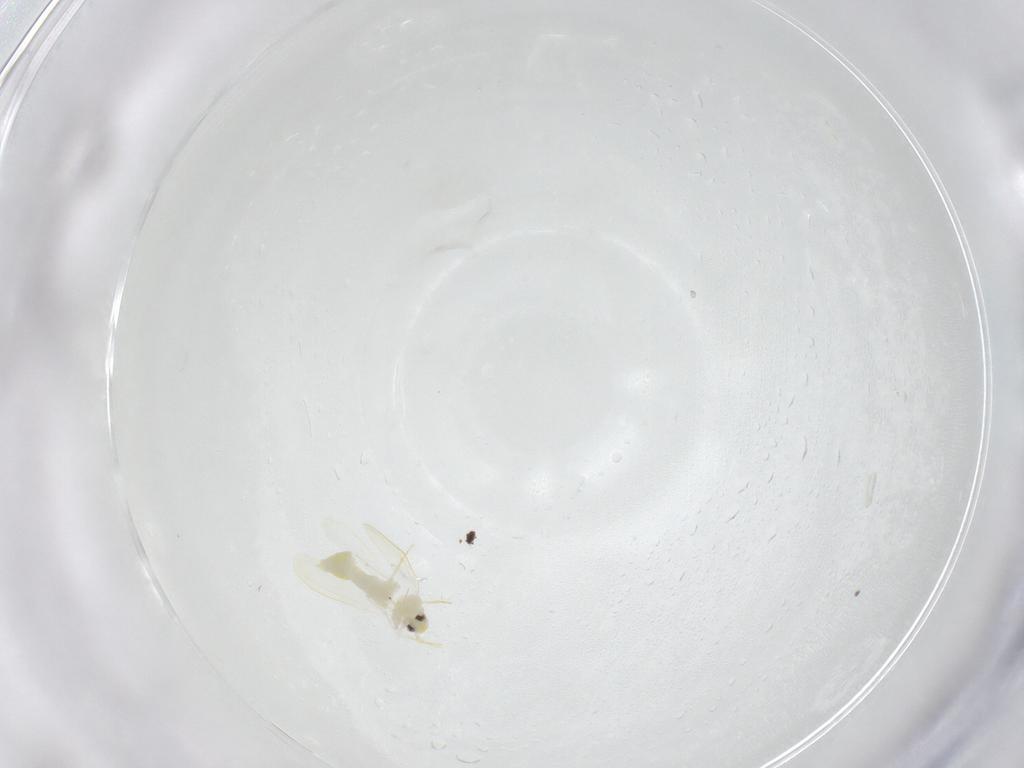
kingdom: Animalia
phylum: Arthropoda
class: Insecta
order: Hemiptera
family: Aleyrodidae
